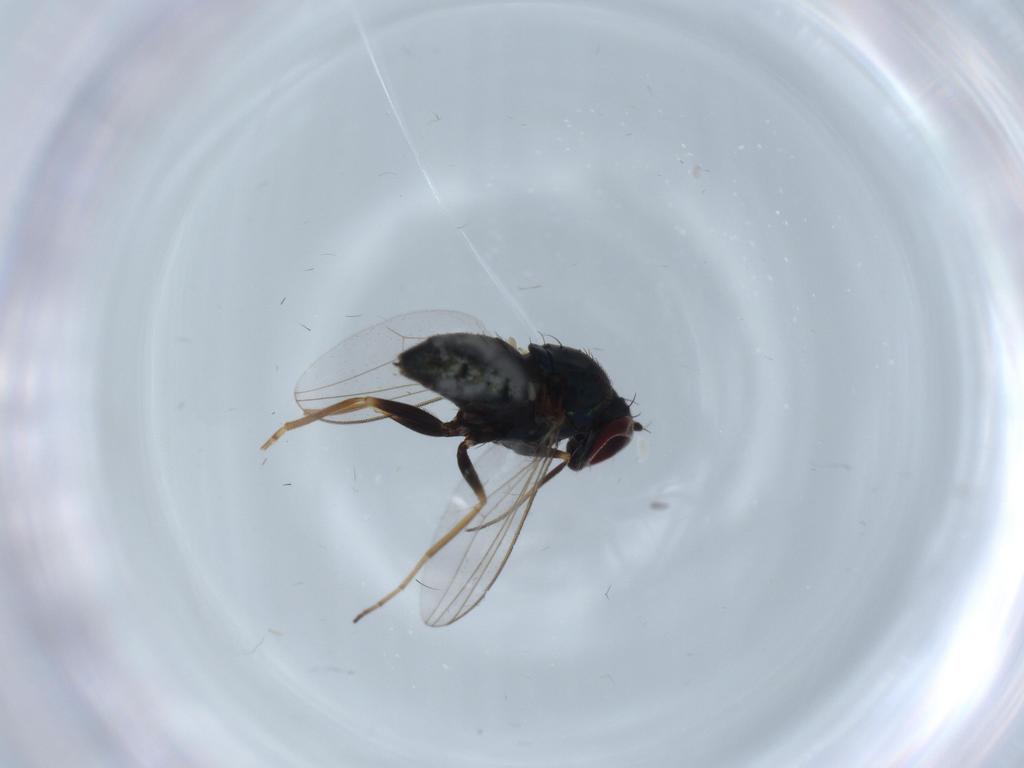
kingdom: Animalia
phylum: Arthropoda
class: Insecta
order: Diptera
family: Dolichopodidae
